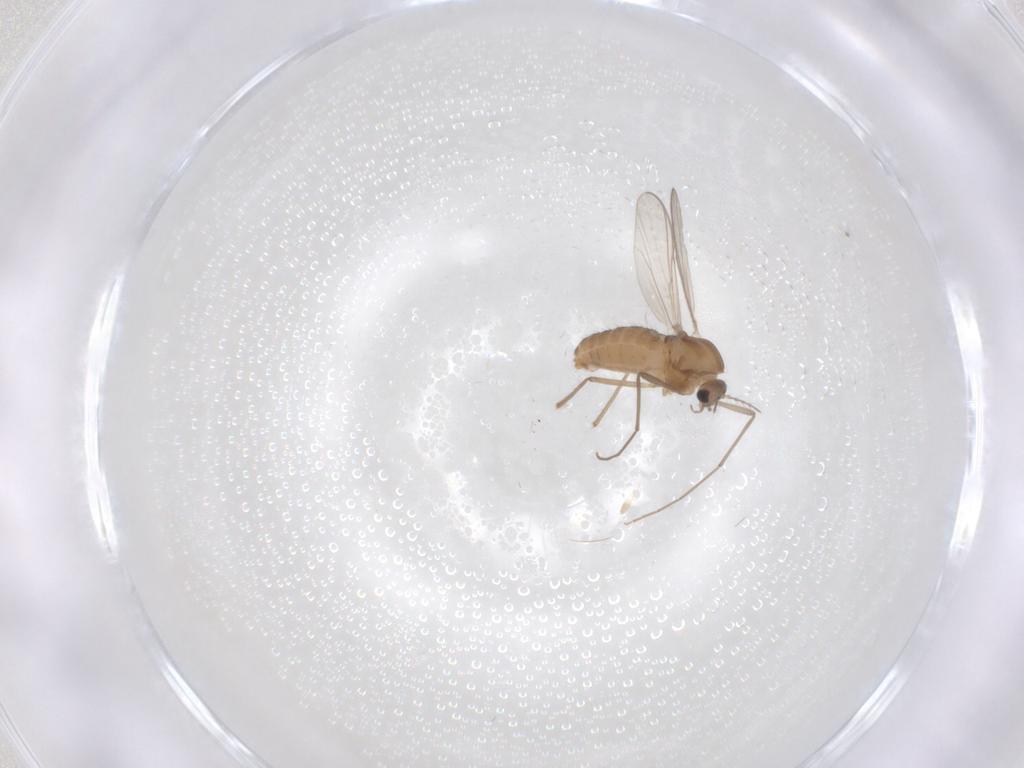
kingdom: Animalia
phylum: Arthropoda
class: Insecta
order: Diptera
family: Chironomidae
